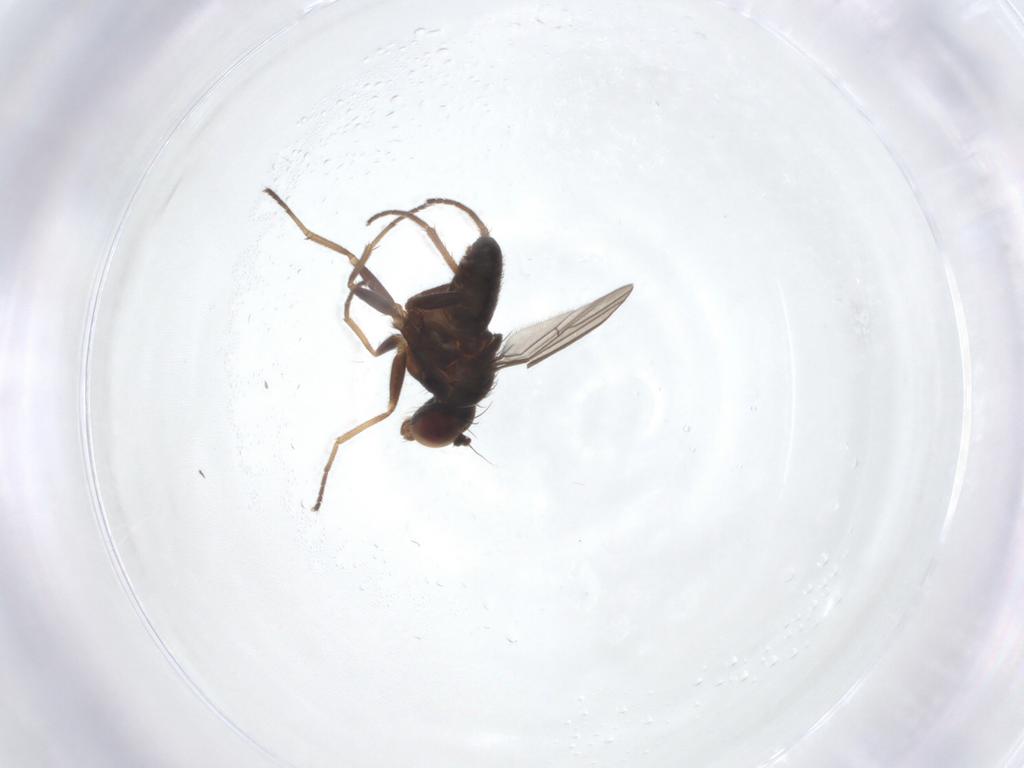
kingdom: Animalia
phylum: Arthropoda
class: Insecta
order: Diptera
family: Dolichopodidae
